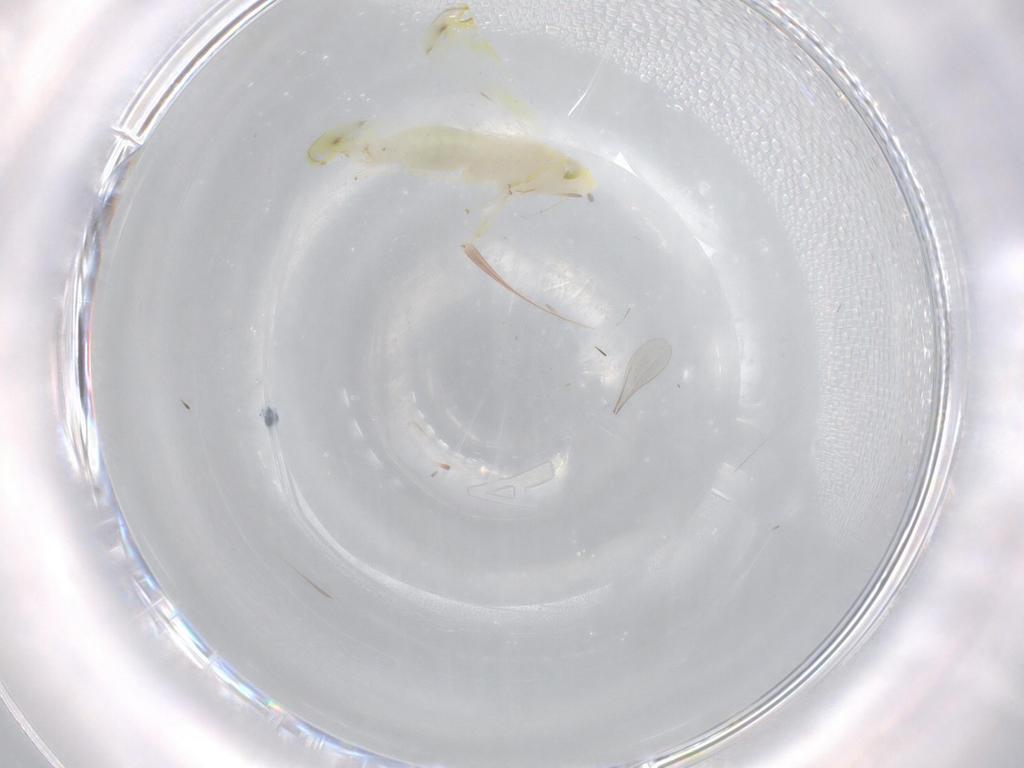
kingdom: Animalia
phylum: Arthropoda
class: Insecta
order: Hemiptera
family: Cicadellidae
